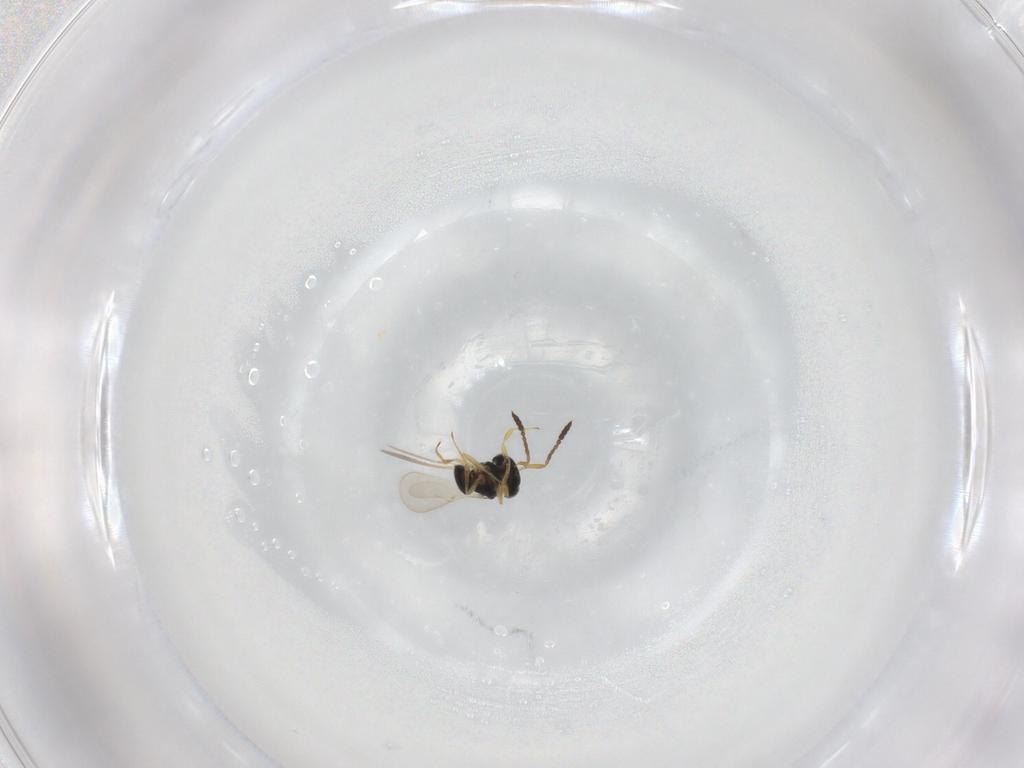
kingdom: Animalia
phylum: Arthropoda
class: Insecta
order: Hymenoptera
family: Scelionidae
